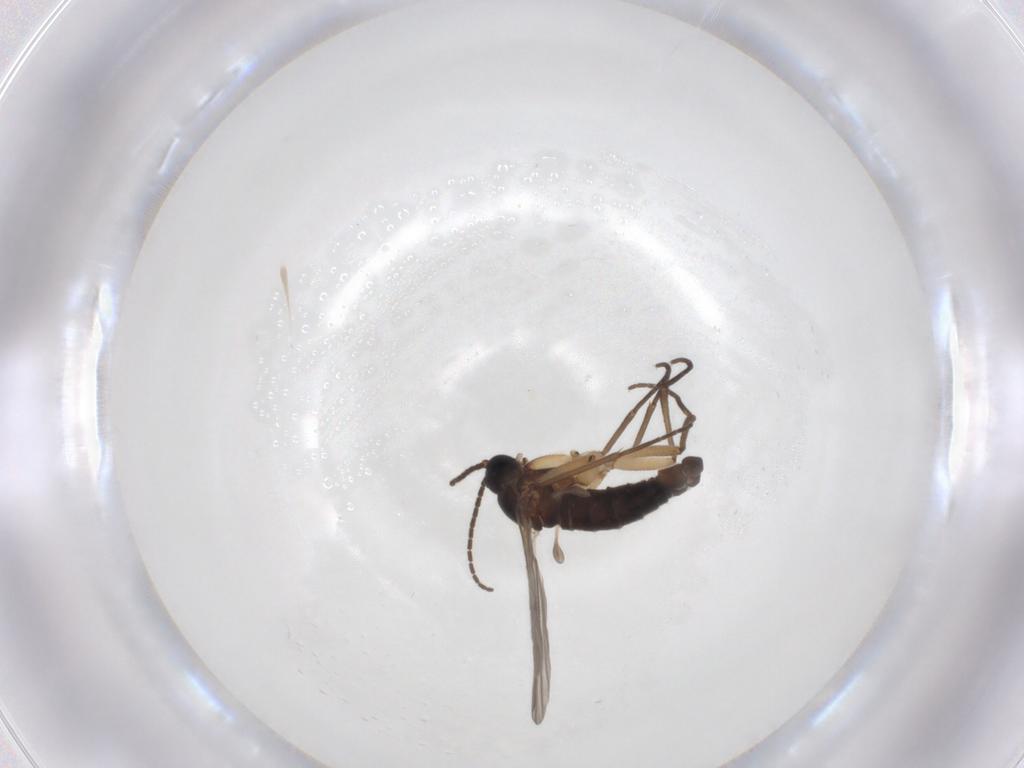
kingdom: Animalia
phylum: Arthropoda
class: Insecta
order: Diptera
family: Sciaridae
